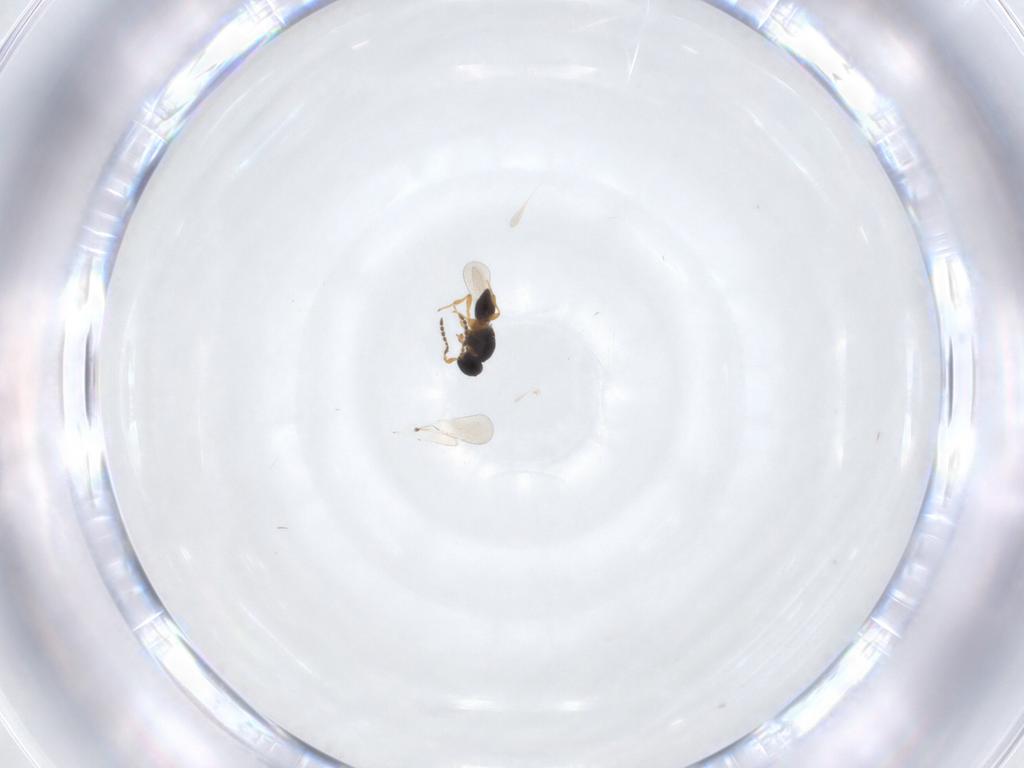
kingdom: Animalia
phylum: Arthropoda
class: Insecta
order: Hymenoptera
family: Platygastridae
